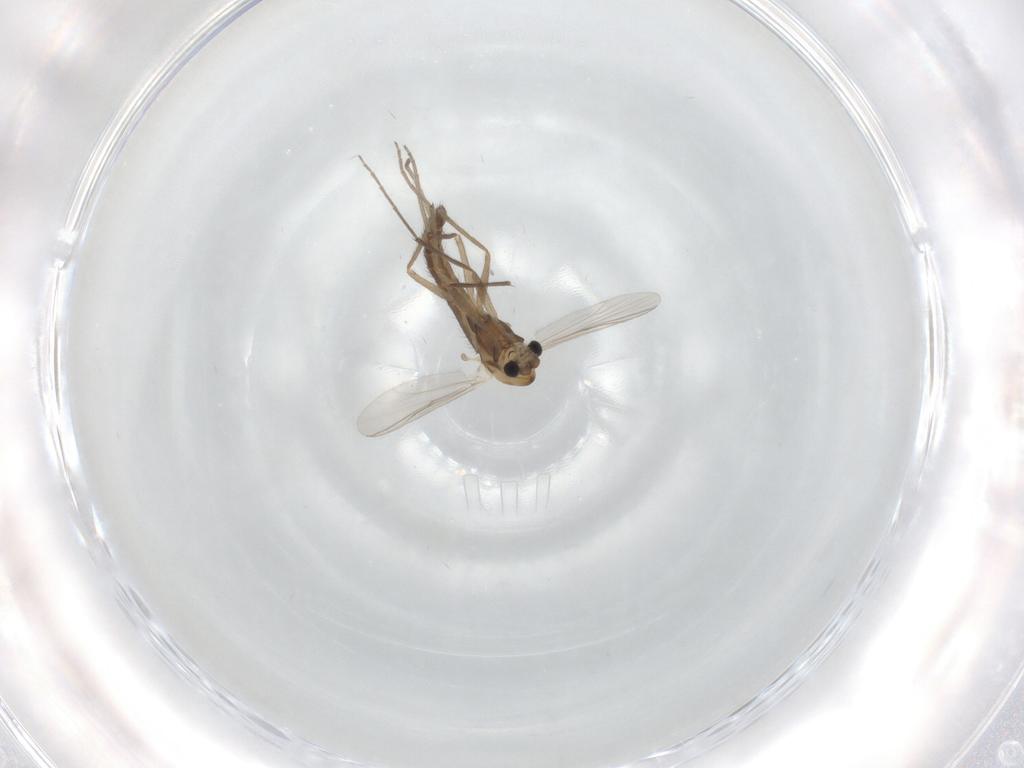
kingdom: Animalia
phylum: Arthropoda
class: Insecta
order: Diptera
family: Chironomidae
